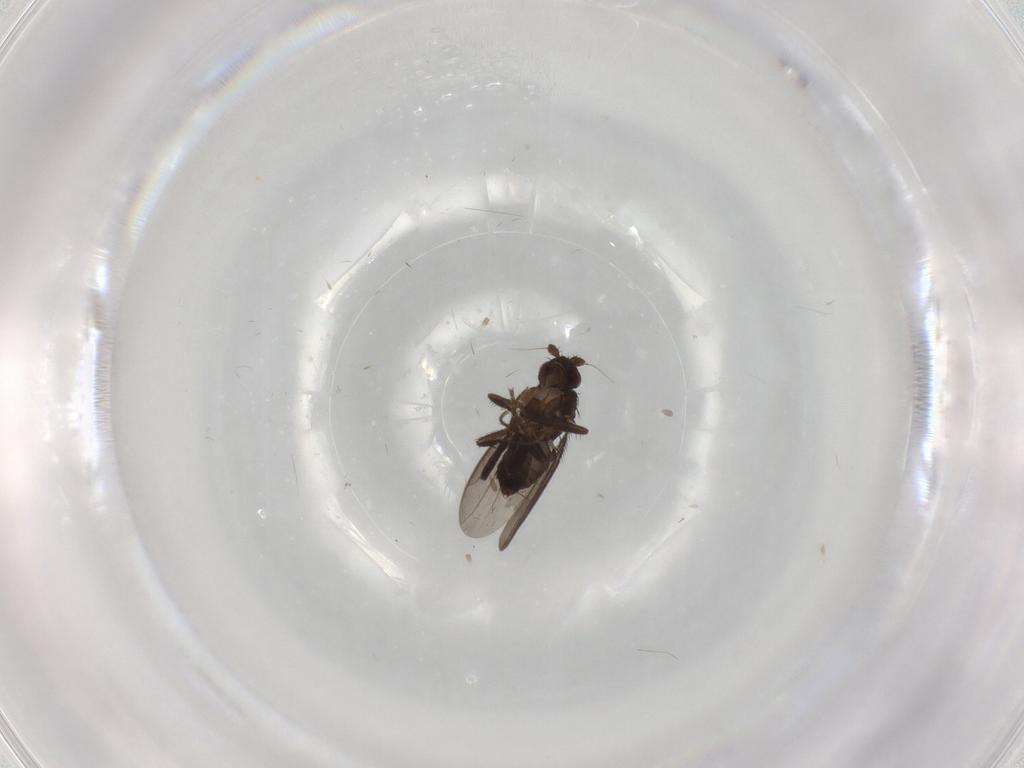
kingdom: Animalia
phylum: Arthropoda
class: Insecta
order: Diptera
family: Sphaeroceridae
